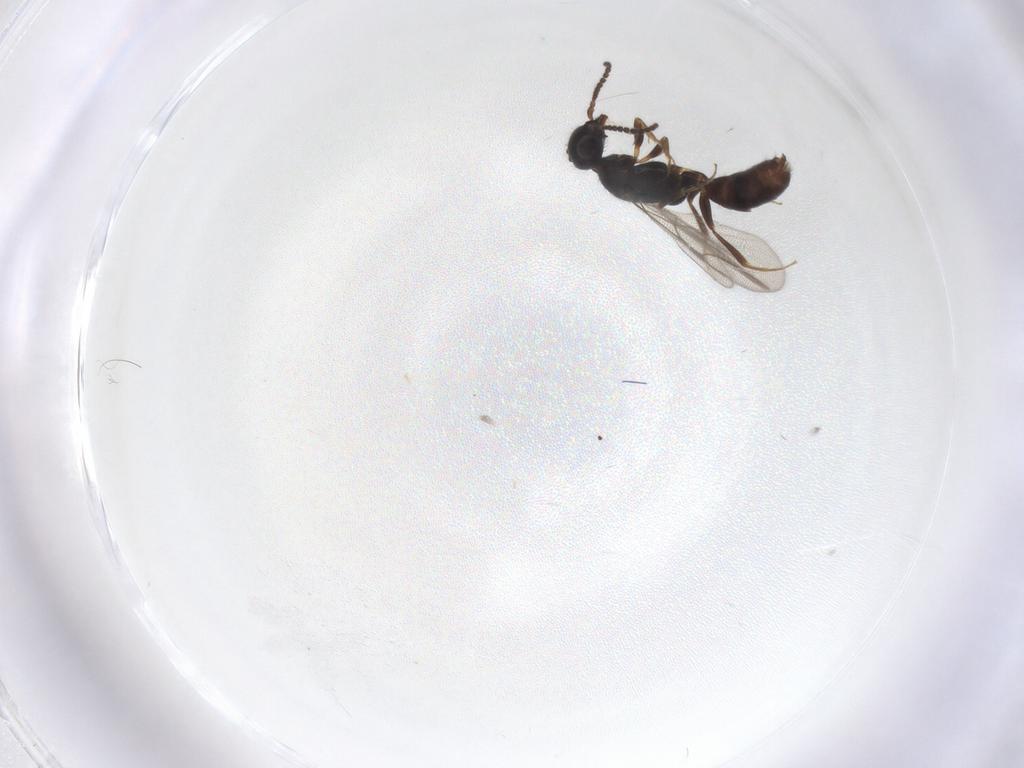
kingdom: Animalia
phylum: Arthropoda
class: Insecta
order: Hymenoptera
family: Bethylidae
